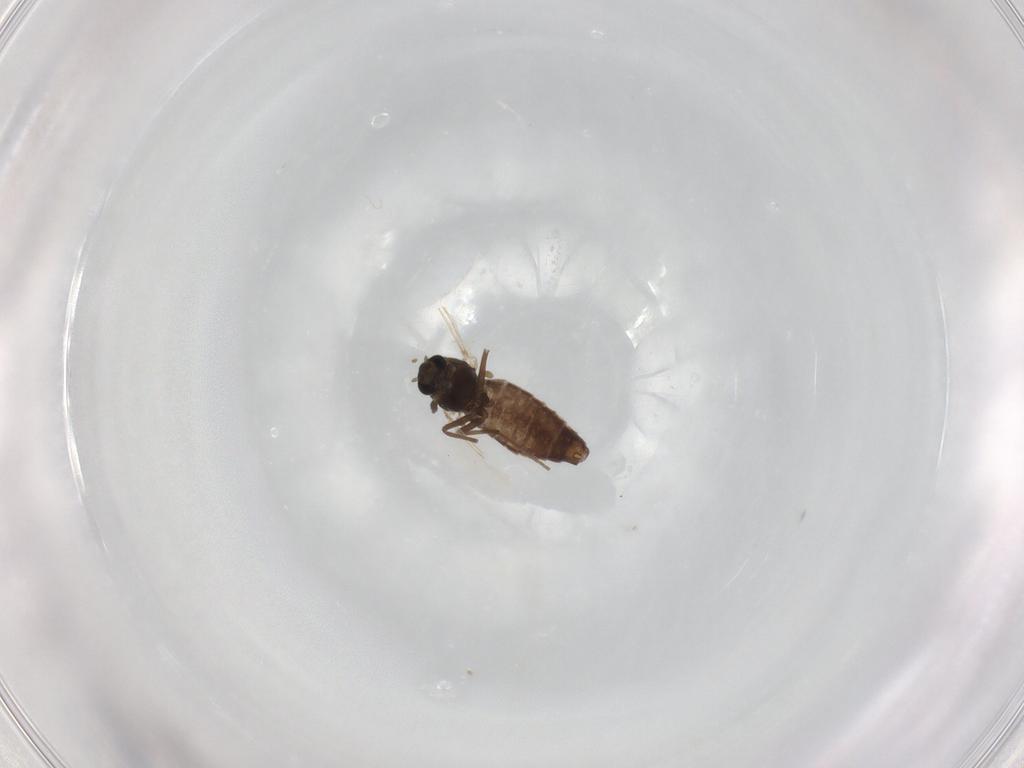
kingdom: Animalia
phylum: Arthropoda
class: Insecta
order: Diptera
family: Chironomidae
